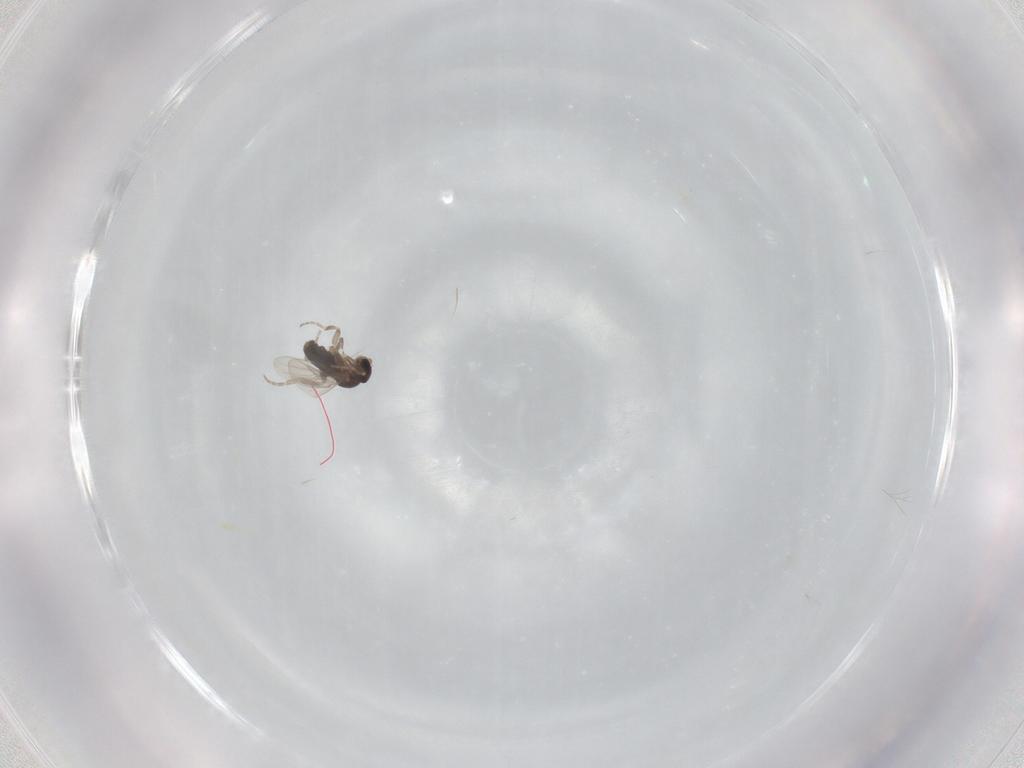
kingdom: Animalia
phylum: Arthropoda
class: Insecta
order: Diptera
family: Phoridae
